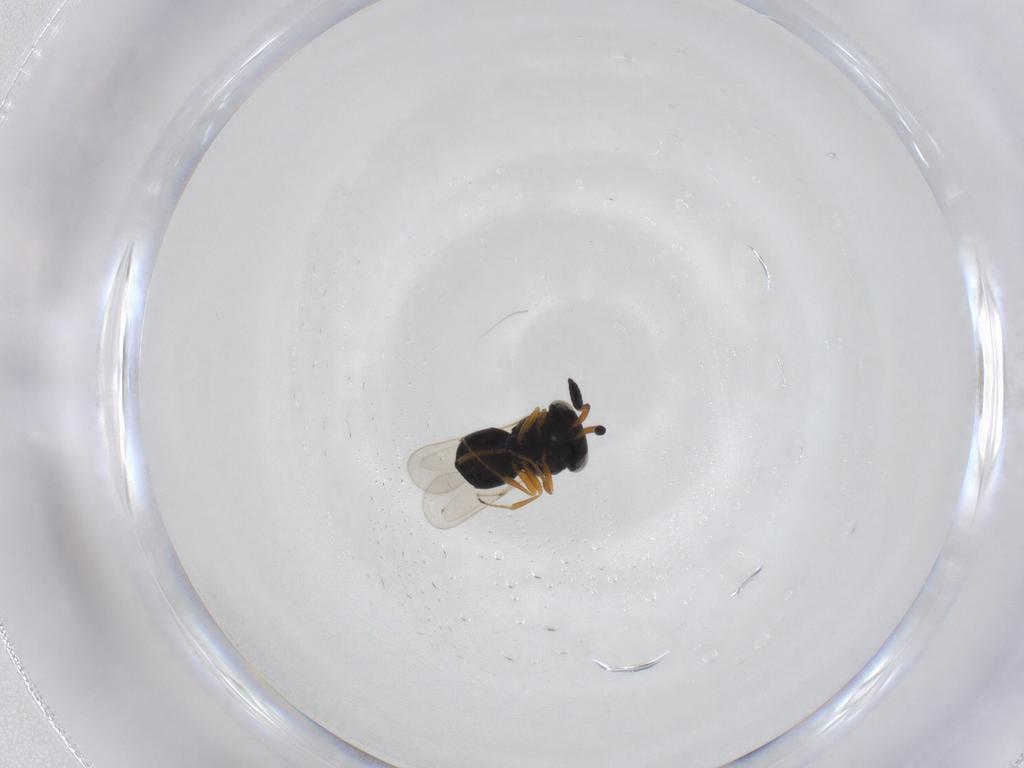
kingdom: Animalia
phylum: Arthropoda
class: Insecta
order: Hymenoptera
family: Scelionidae
